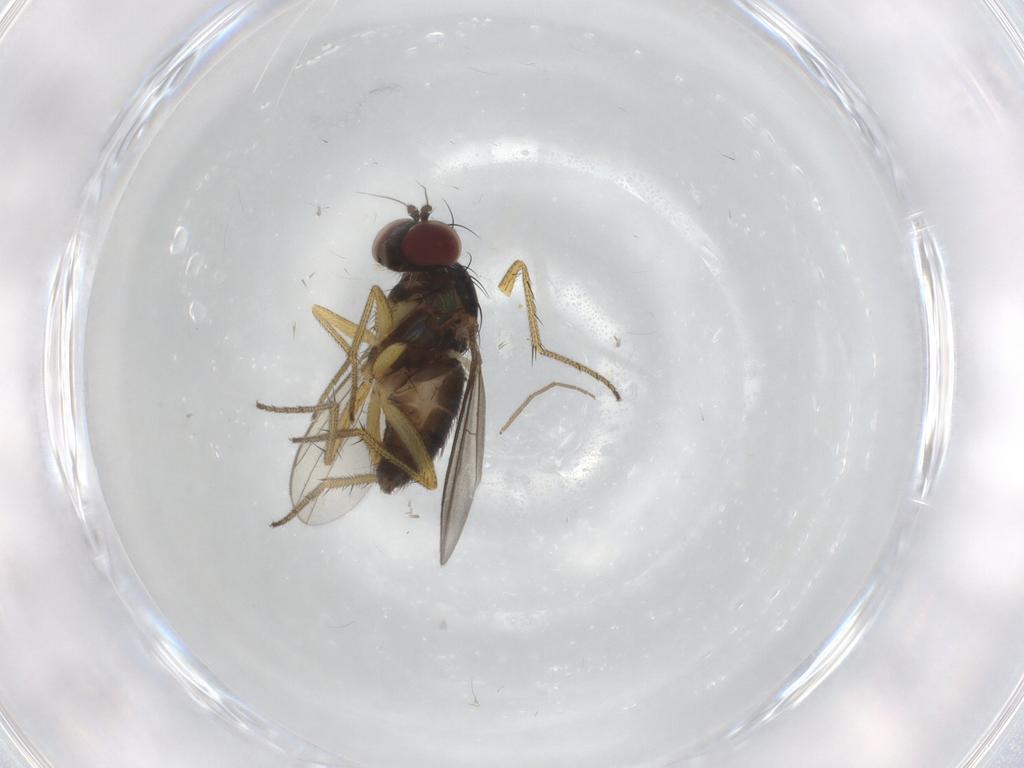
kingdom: Animalia
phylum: Arthropoda
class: Insecta
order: Diptera
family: Dolichopodidae
